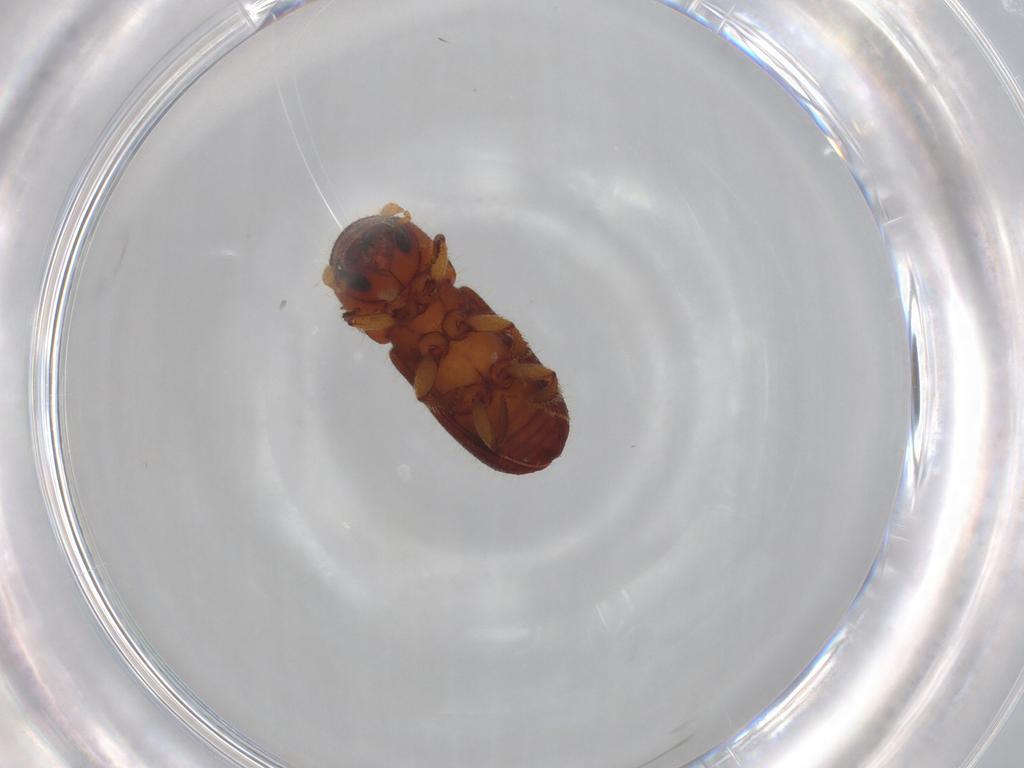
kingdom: Animalia
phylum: Arthropoda
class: Insecta
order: Coleoptera
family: Curculionidae
